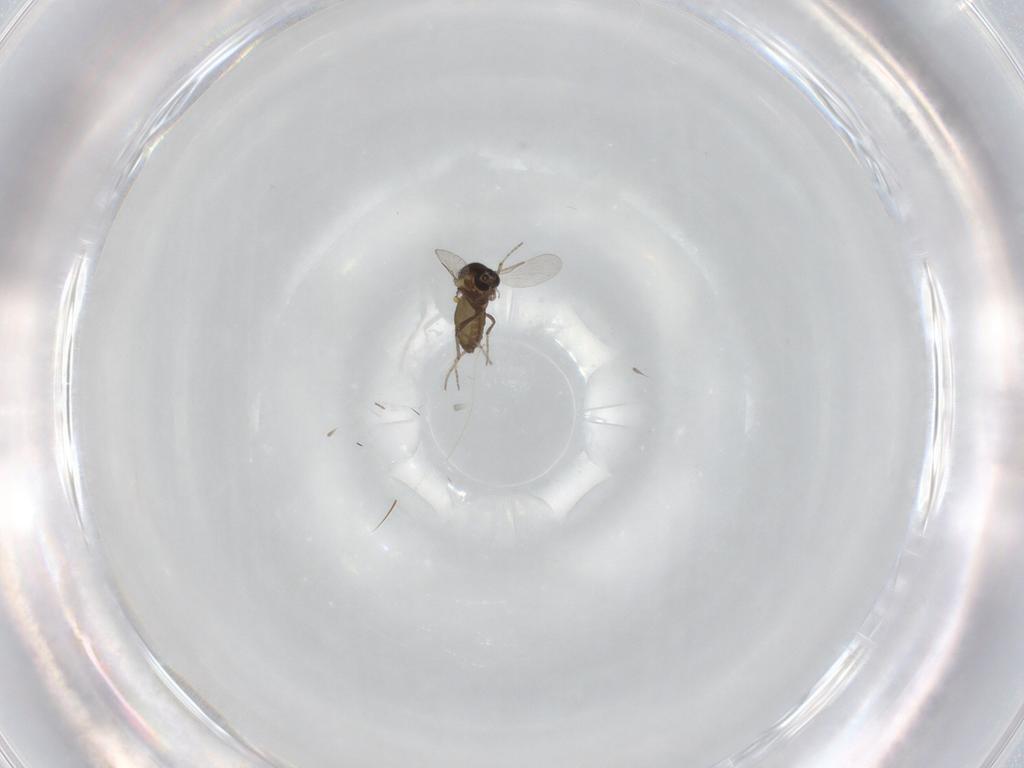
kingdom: Animalia
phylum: Arthropoda
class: Insecta
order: Diptera
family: Ceratopogonidae
